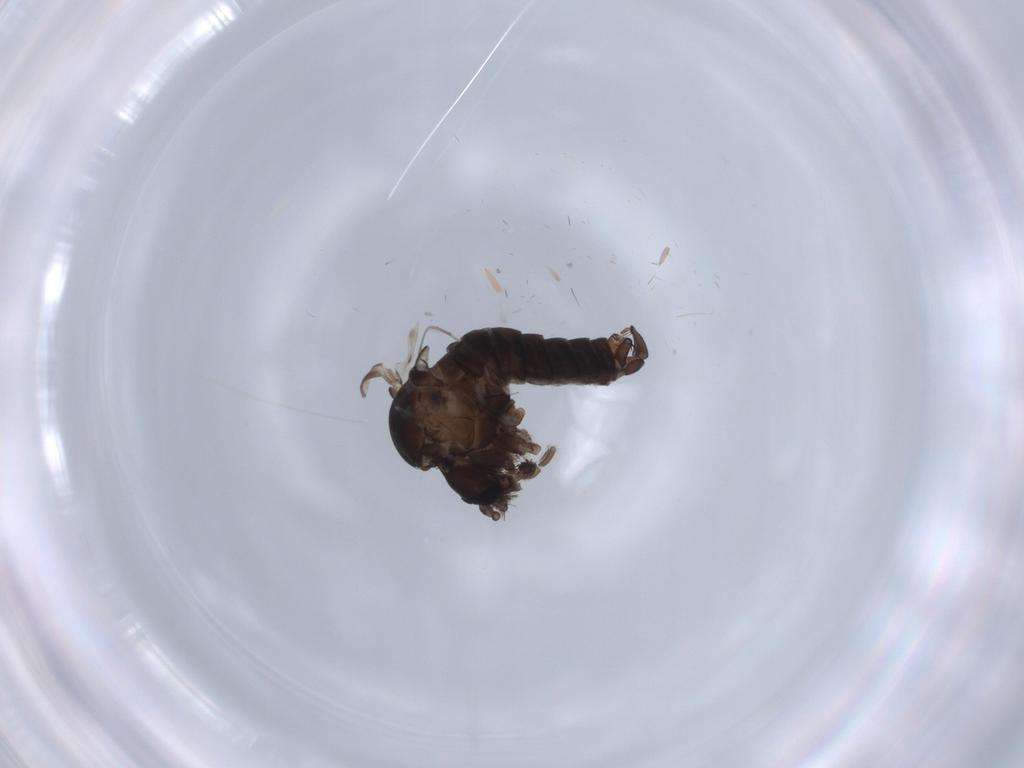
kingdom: Animalia
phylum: Arthropoda
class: Insecta
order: Diptera
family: Psychodidae
